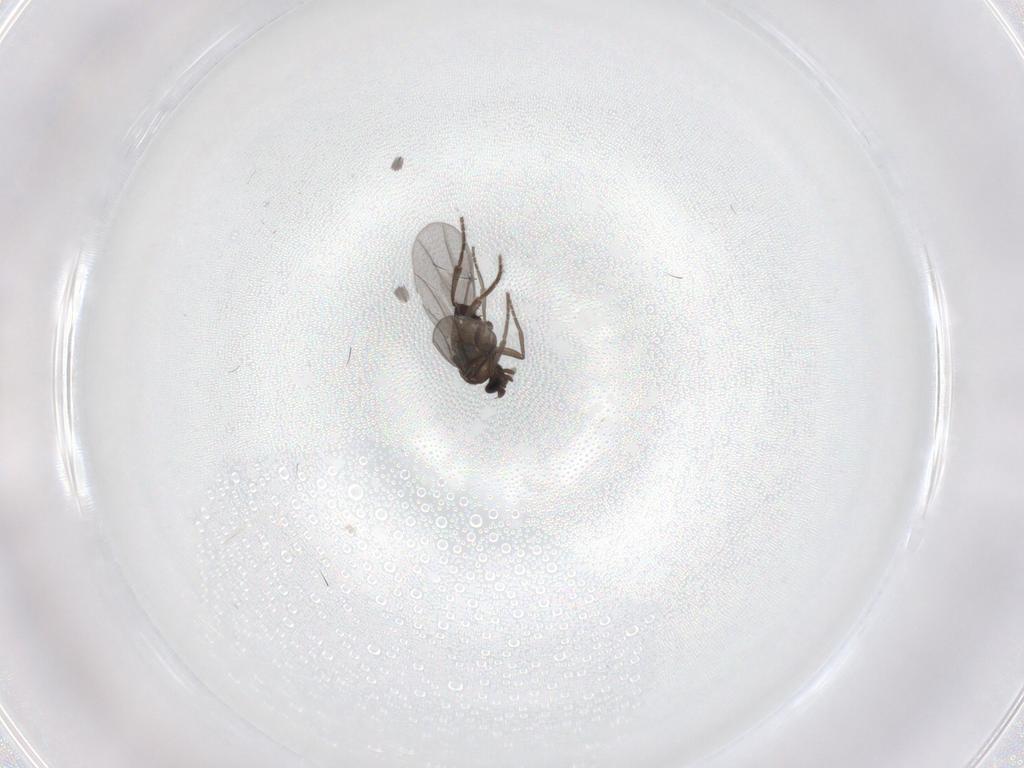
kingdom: Animalia
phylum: Arthropoda
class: Insecta
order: Diptera
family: Phoridae
